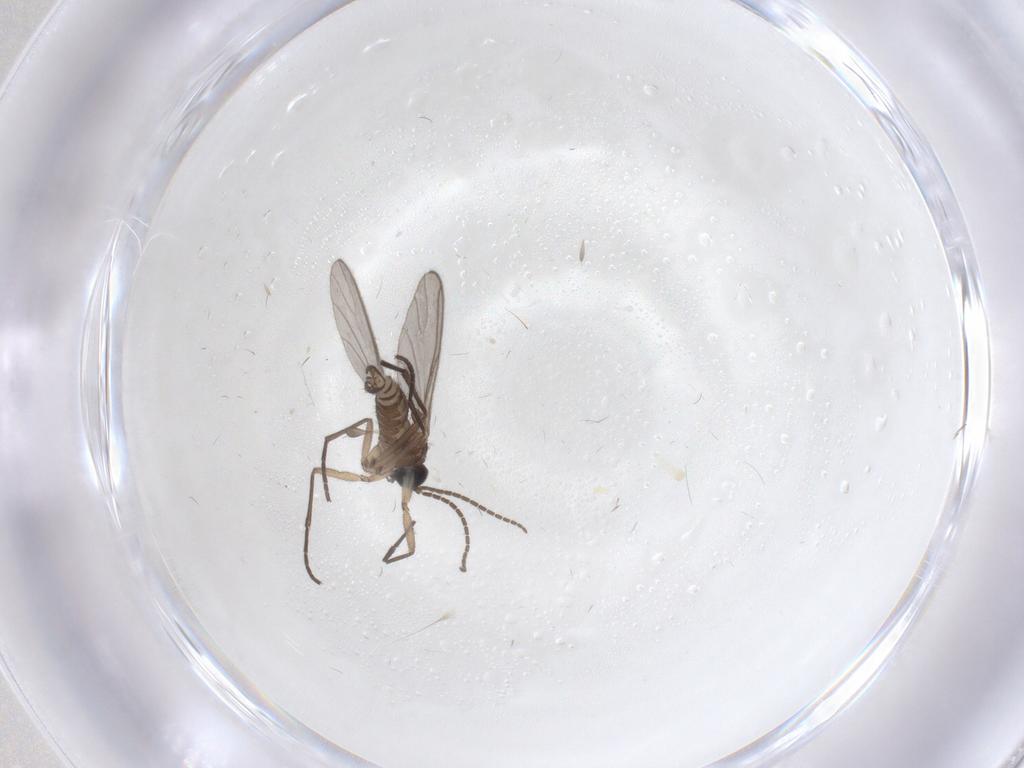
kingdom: Animalia
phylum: Arthropoda
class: Insecta
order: Diptera
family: Sciaridae
